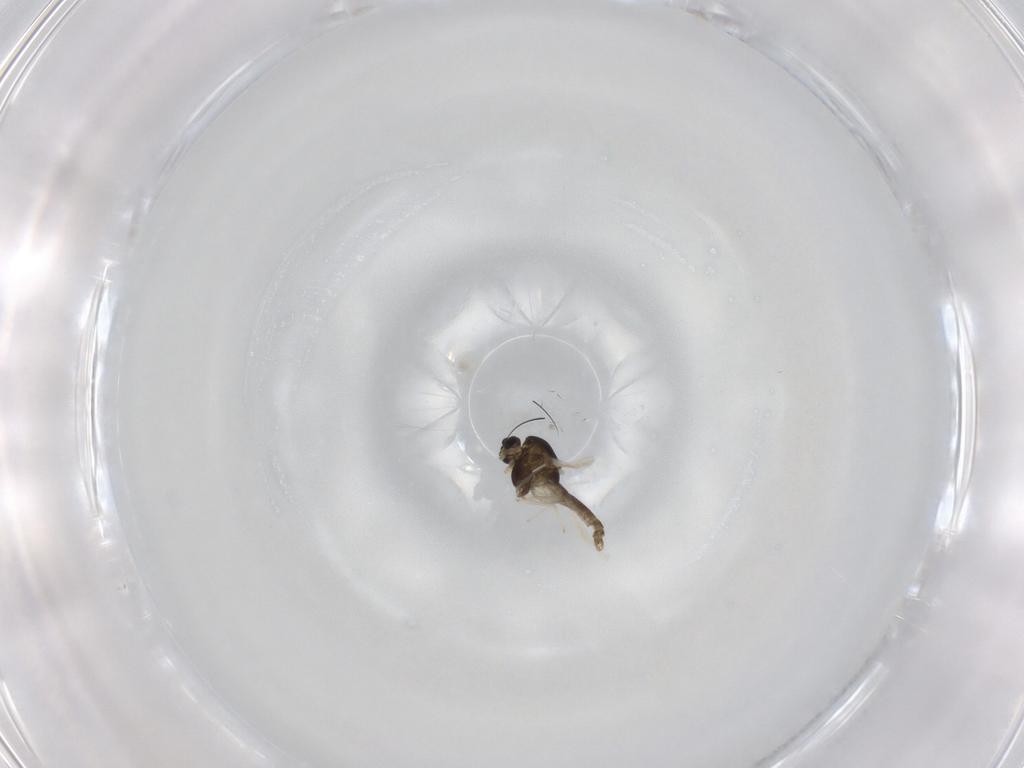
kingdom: Animalia
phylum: Arthropoda
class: Insecta
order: Diptera
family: Chironomidae
